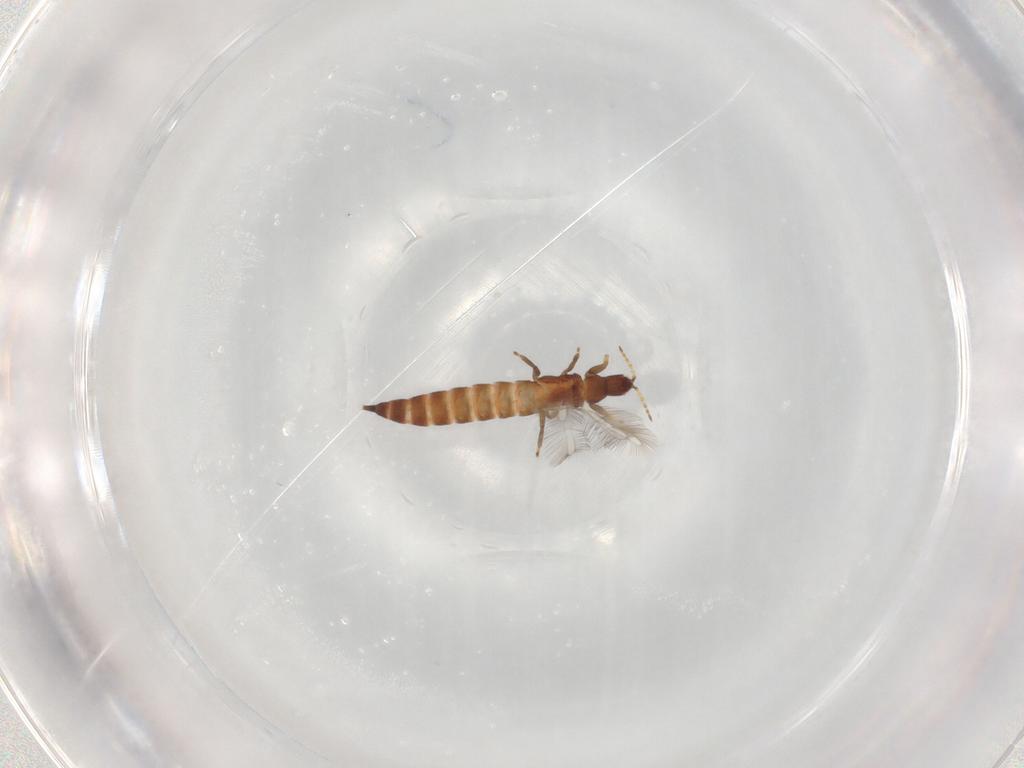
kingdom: Animalia
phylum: Arthropoda
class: Insecta
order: Thysanoptera
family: Phlaeothripidae
